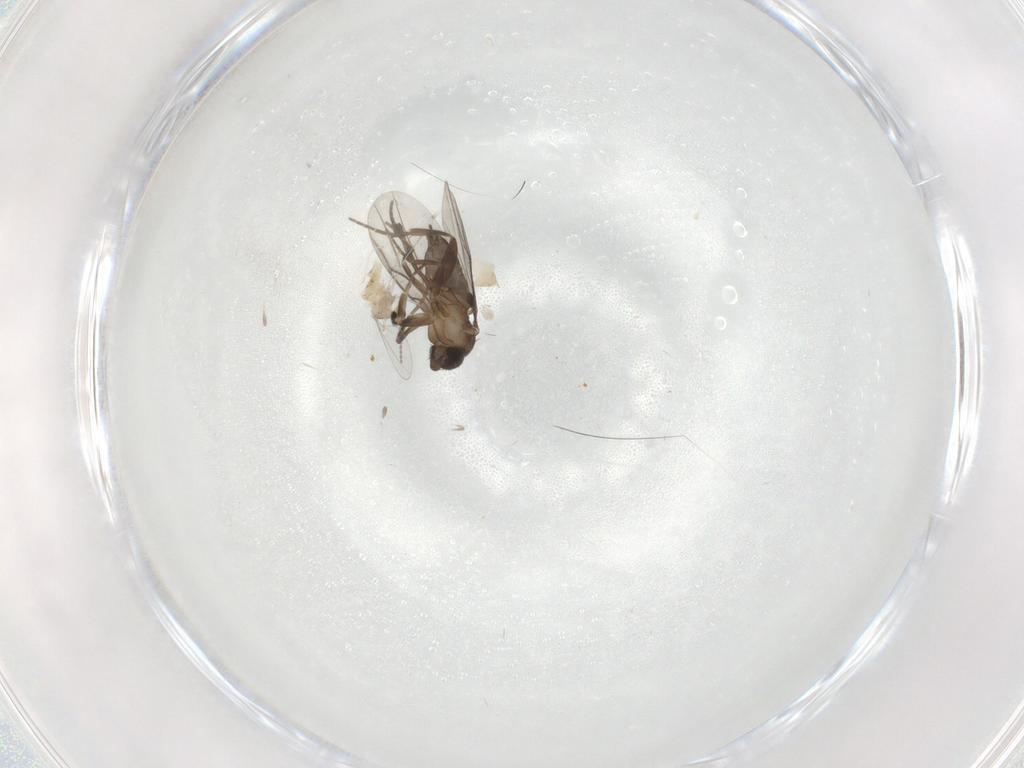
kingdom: Animalia
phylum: Arthropoda
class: Insecta
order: Diptera
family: Cecidomyiidae
